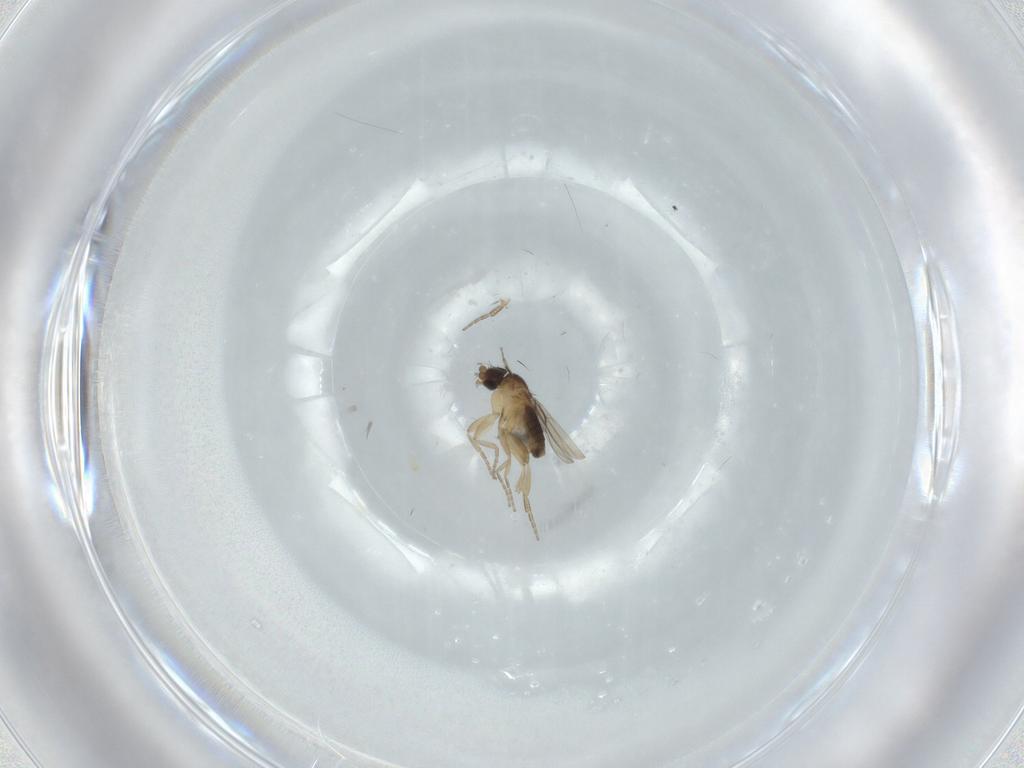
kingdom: Animalia
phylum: Arthropoda
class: Insecta
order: Diptera
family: Phoridae
